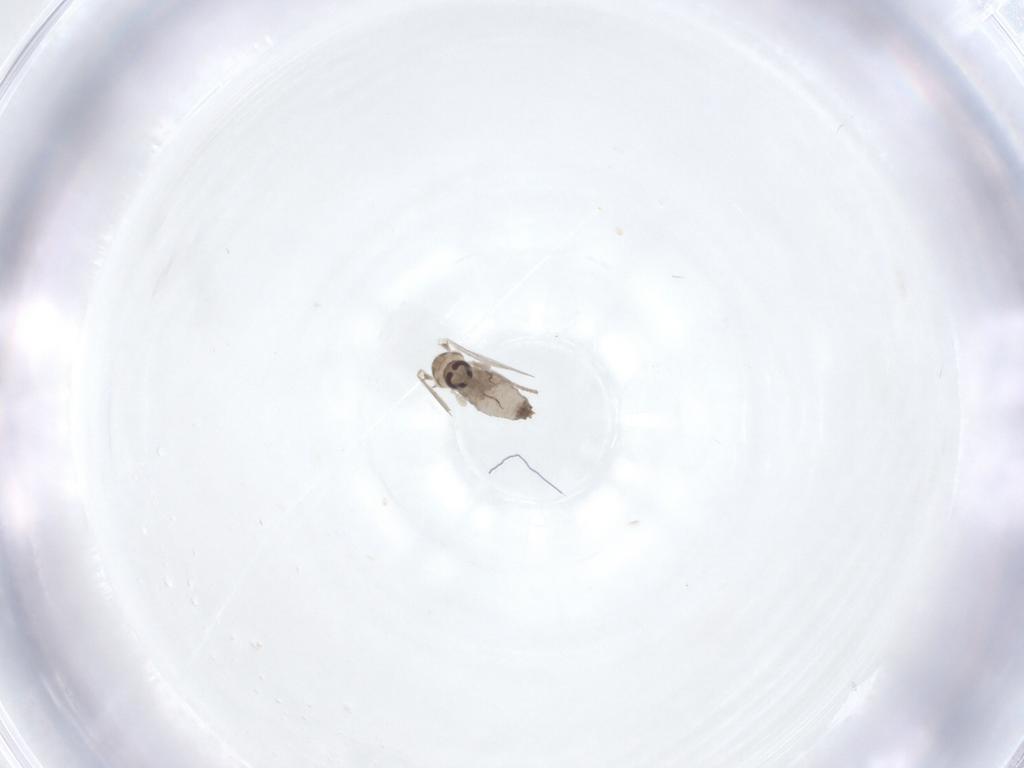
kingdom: Animalia
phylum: Arthropoda
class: Insecta
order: Diptera
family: Psychodidae
